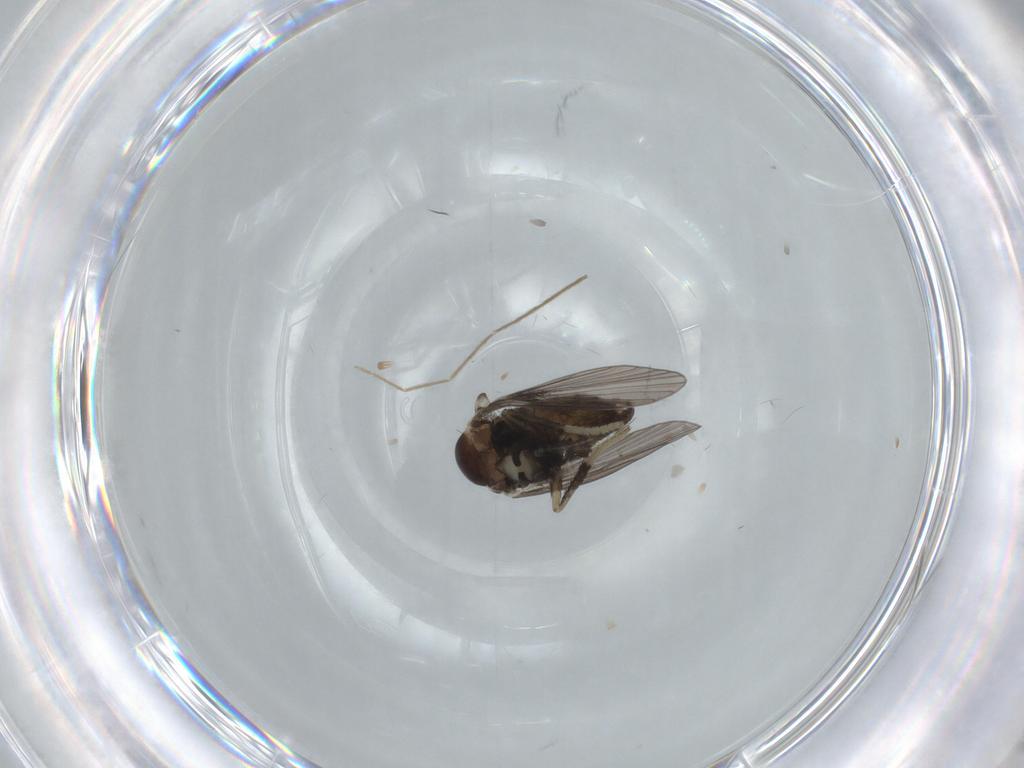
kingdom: Animalia
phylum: Arthropoda
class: Insecta
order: Diptera
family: Psychodidae
